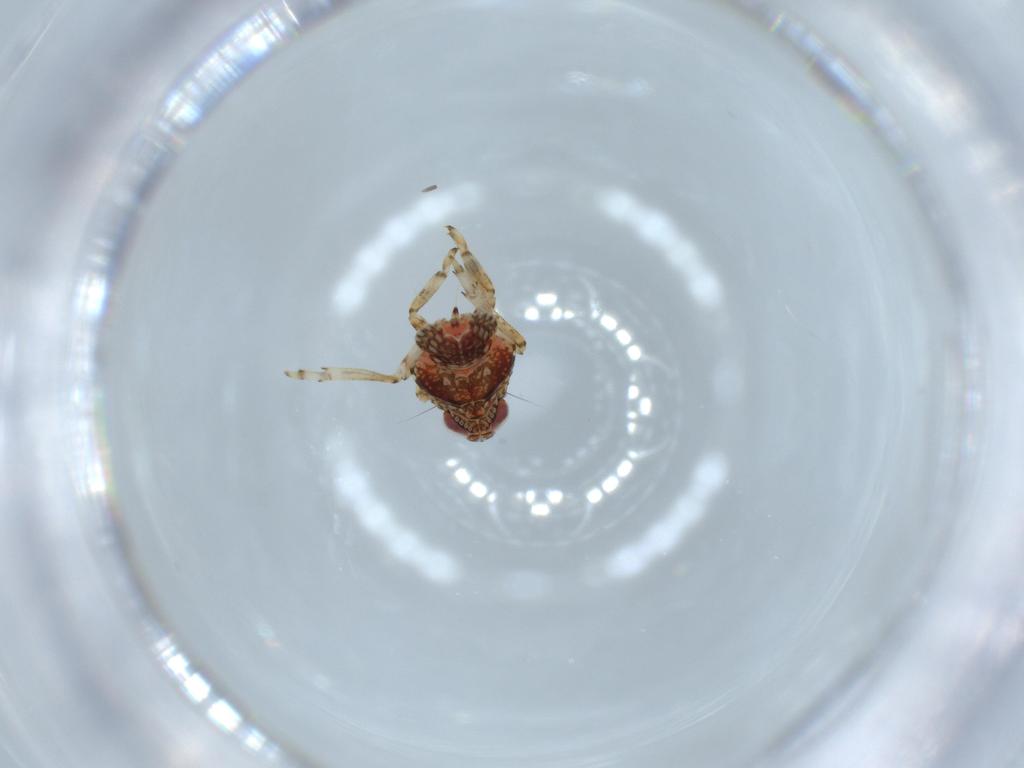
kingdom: Animalia
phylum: Arthropoda
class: Insecta
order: Hemiptera
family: Issidae
